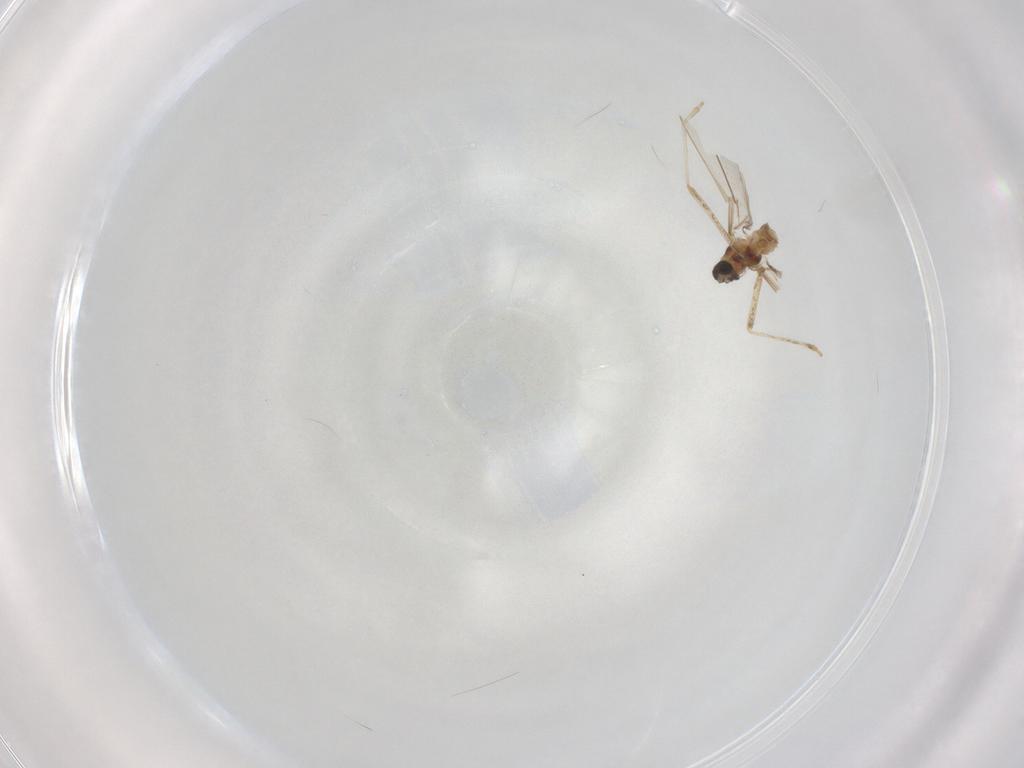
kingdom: Animalia
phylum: Arthropoda
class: Insecta
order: Diptera
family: Cecidomyiidae
